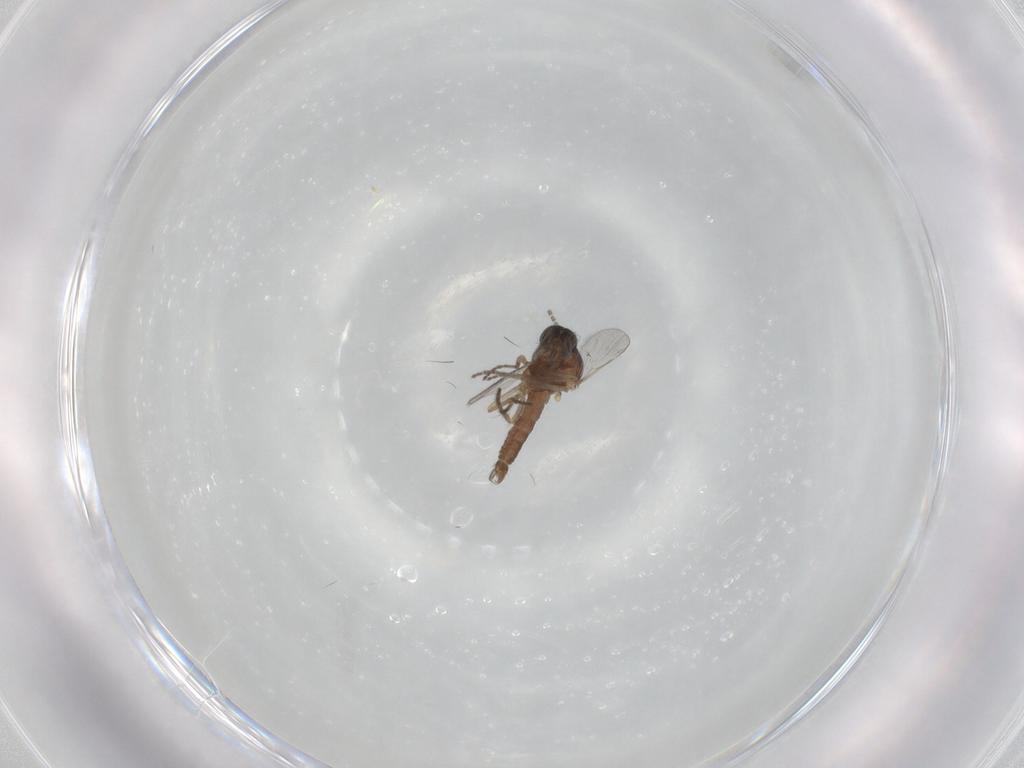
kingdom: Animalia
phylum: Arthropoda
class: Insecta
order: Diptera
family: Sciaridae
